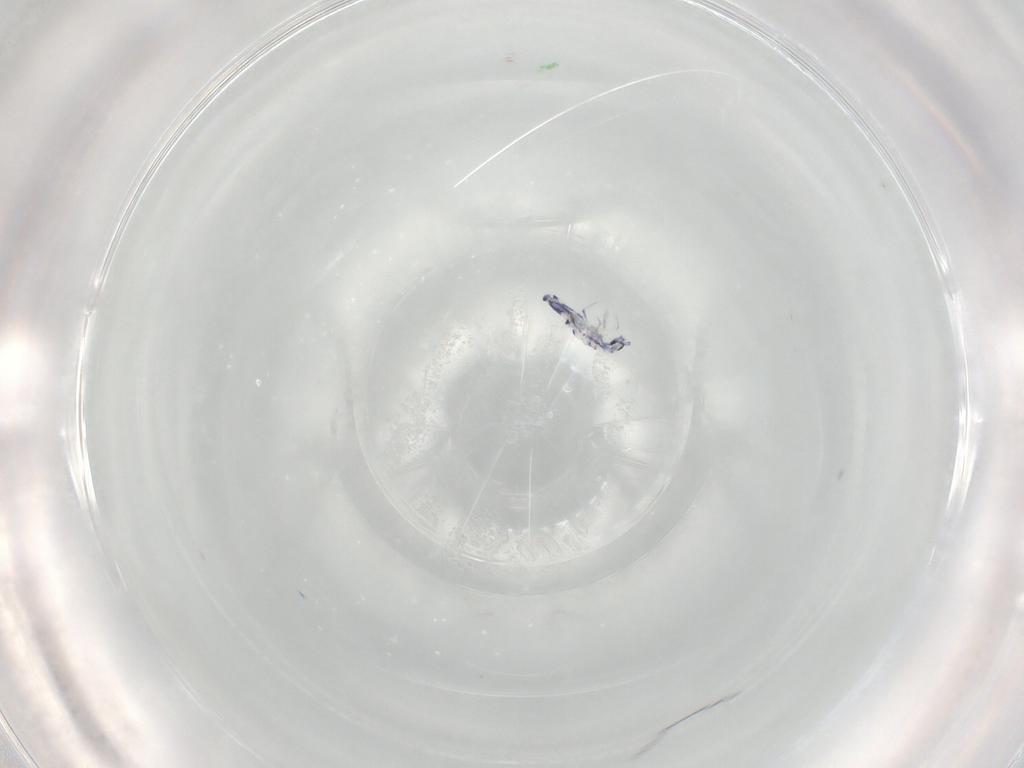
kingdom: Animalia
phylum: Arthropoda
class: Collembola
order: Entomobryomorpha
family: Entomobryidae
